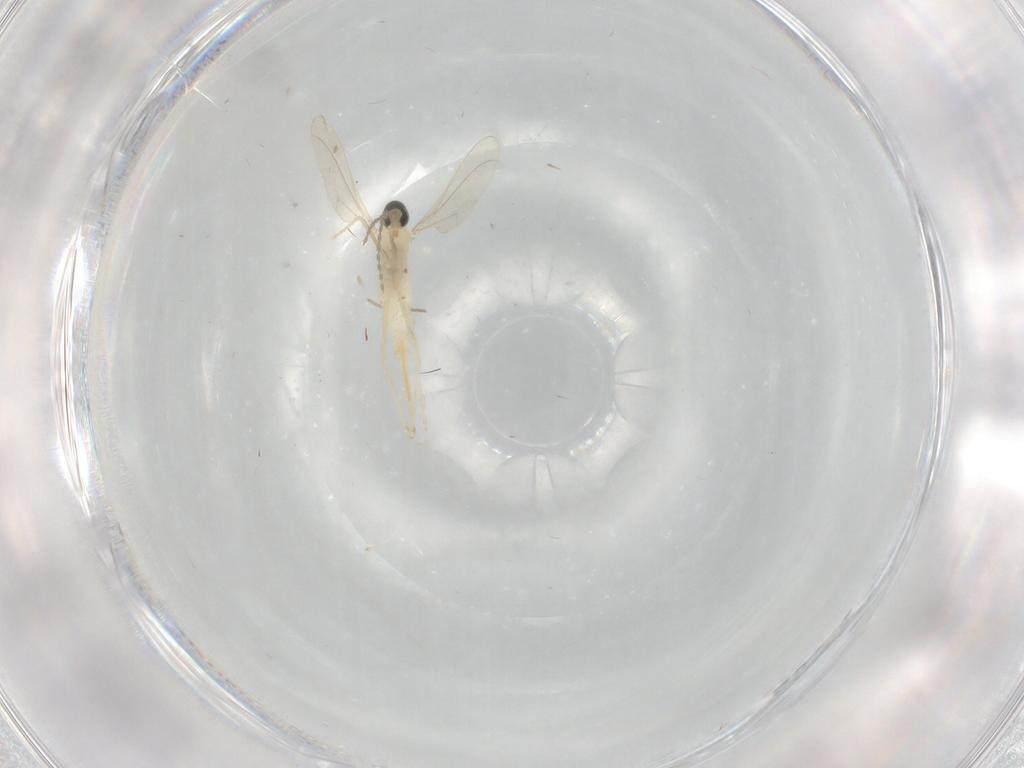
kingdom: Animalia
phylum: Arthropoda
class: Insecta
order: Diptera
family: Cecidomyiidae
